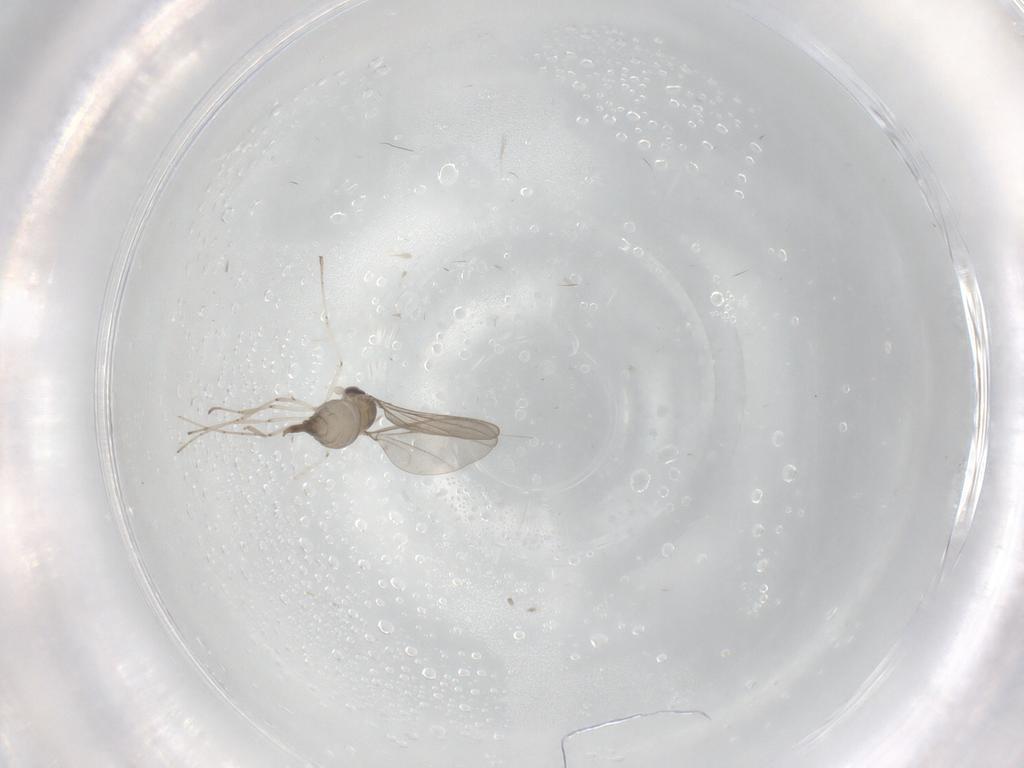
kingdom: Animalia
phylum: Arthropoda
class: Insecta
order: Diptera
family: Cecidomyiidae
